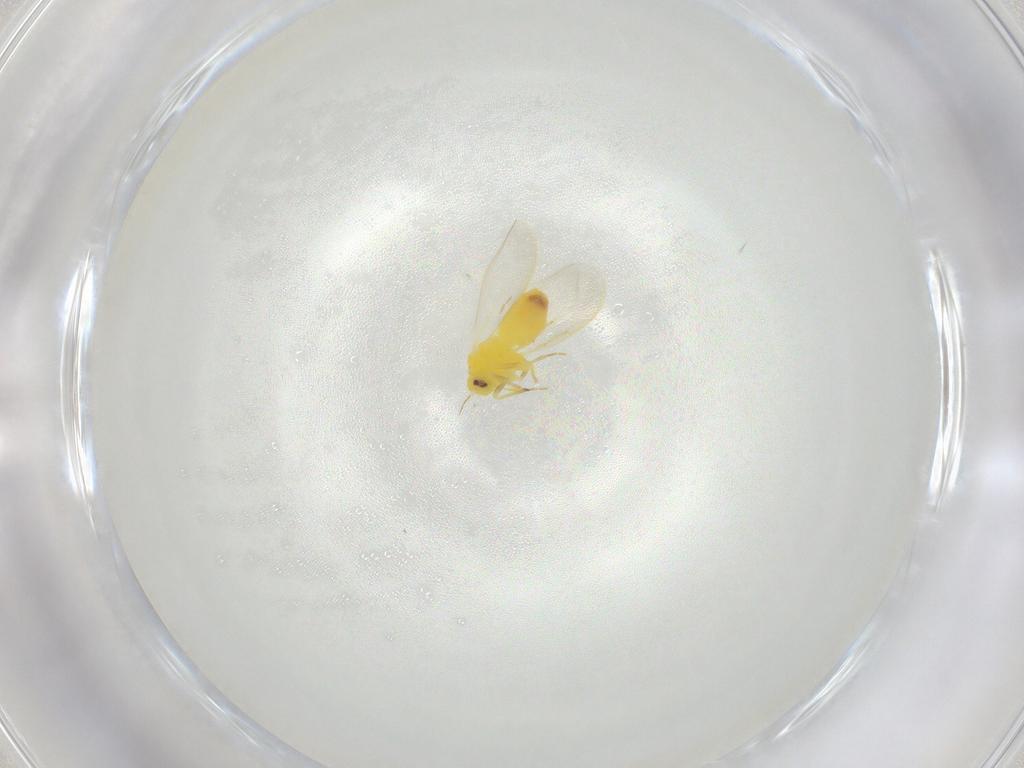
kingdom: Animalia
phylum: Arthropoda
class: Insecta
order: Hemiptera
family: Aleyrodidae
